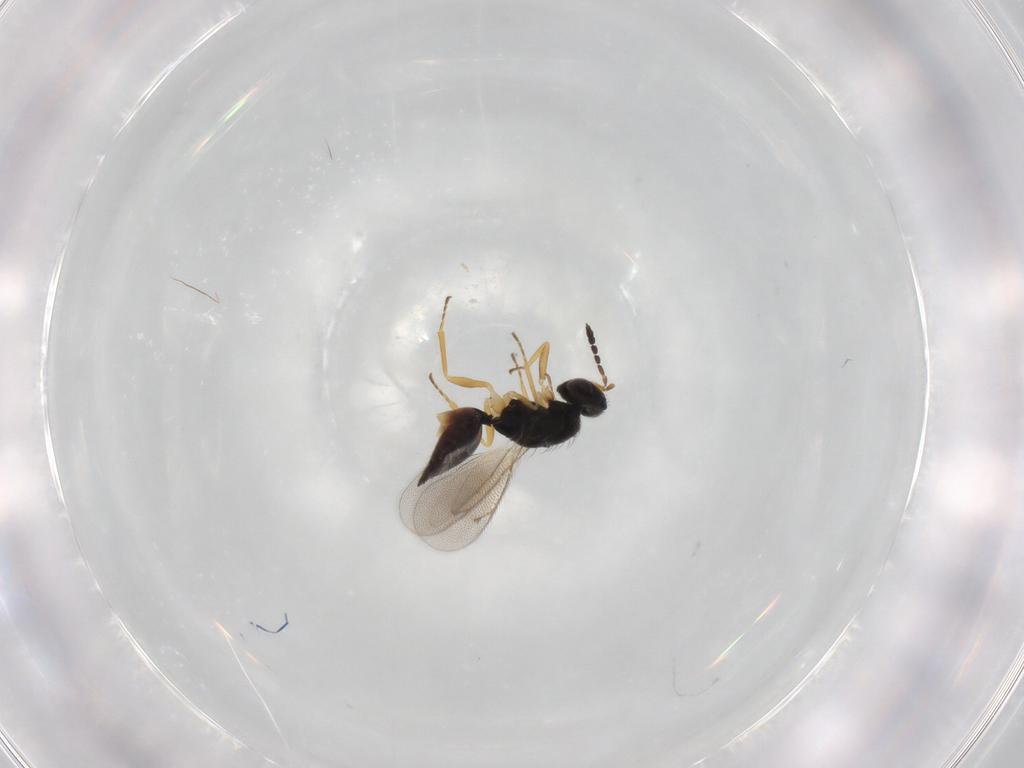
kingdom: Animalia
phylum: Arthropoda
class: Insecta
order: Hymenoptera
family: Eulophidae
